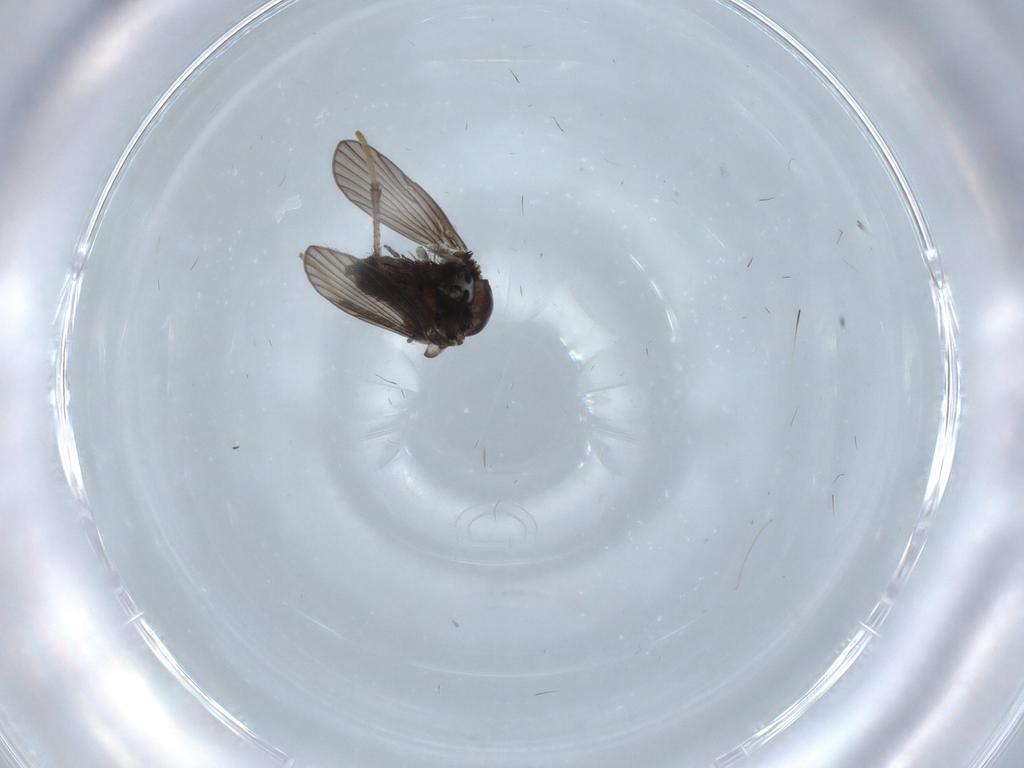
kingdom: Animalia
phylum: Arthropoda
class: Insecta
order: Diptera
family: Psychodidae
